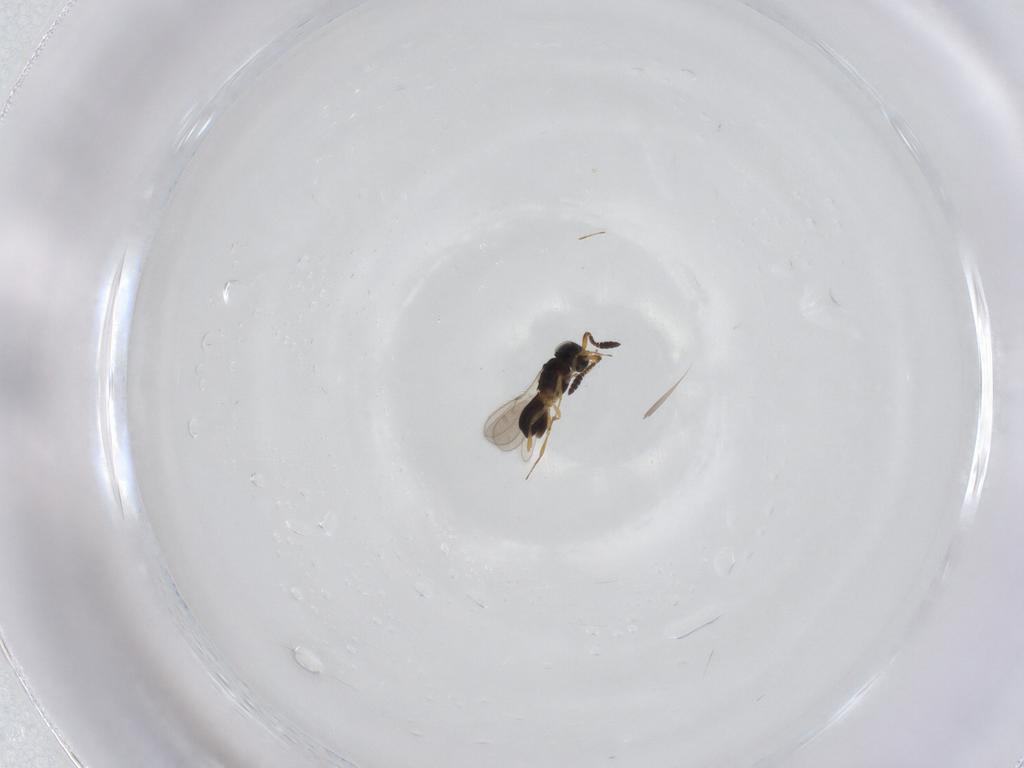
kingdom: Animalia
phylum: Arthropoda
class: Insecta
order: Hymenoptera
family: Scelionidae
